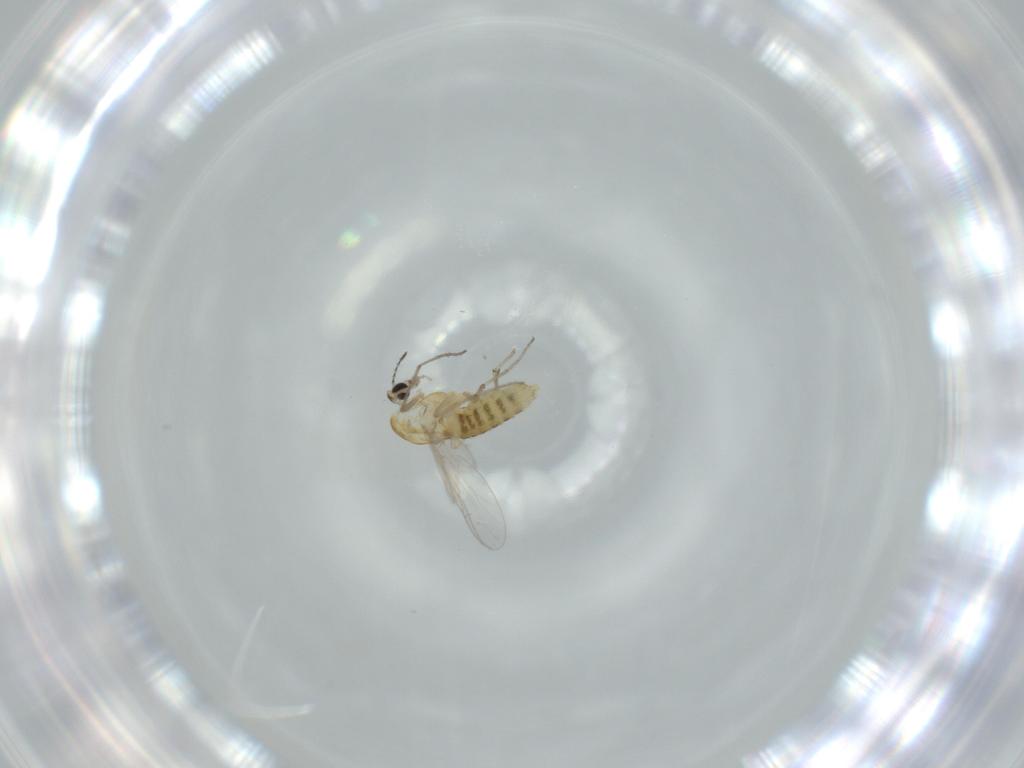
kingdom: Animalia
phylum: Arthropoda
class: Insecta
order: Diptera
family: Chironomidae
